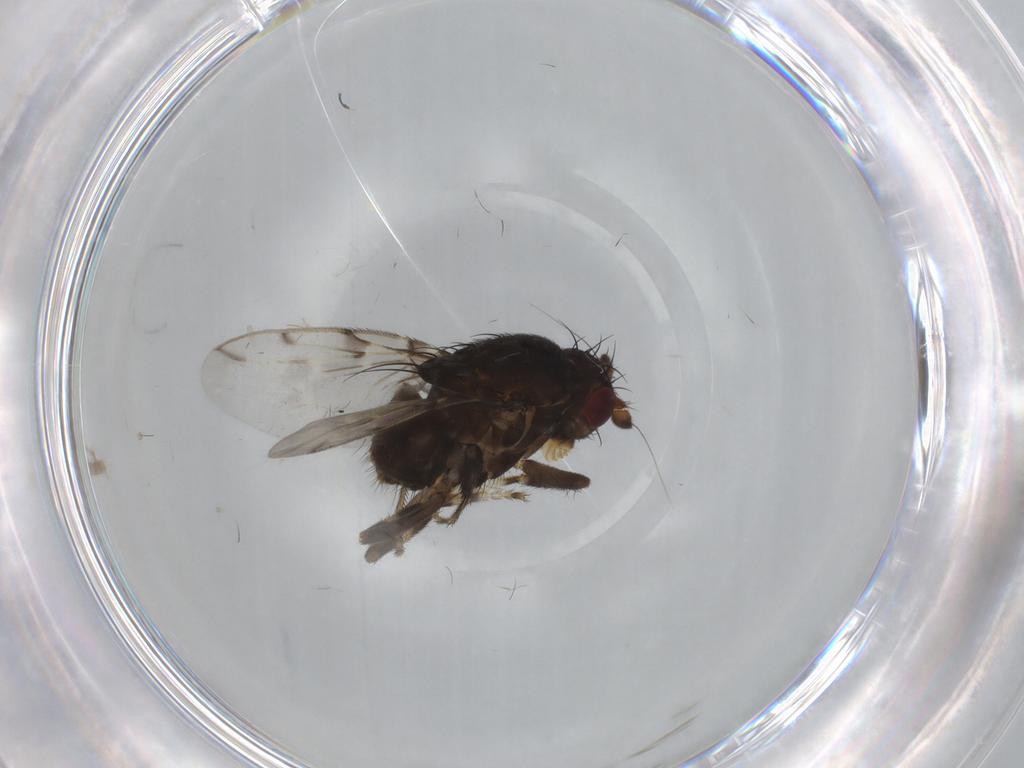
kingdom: Animalia
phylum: Arthropoda
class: Insecta
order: Diptera
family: Sphaeroceridae
